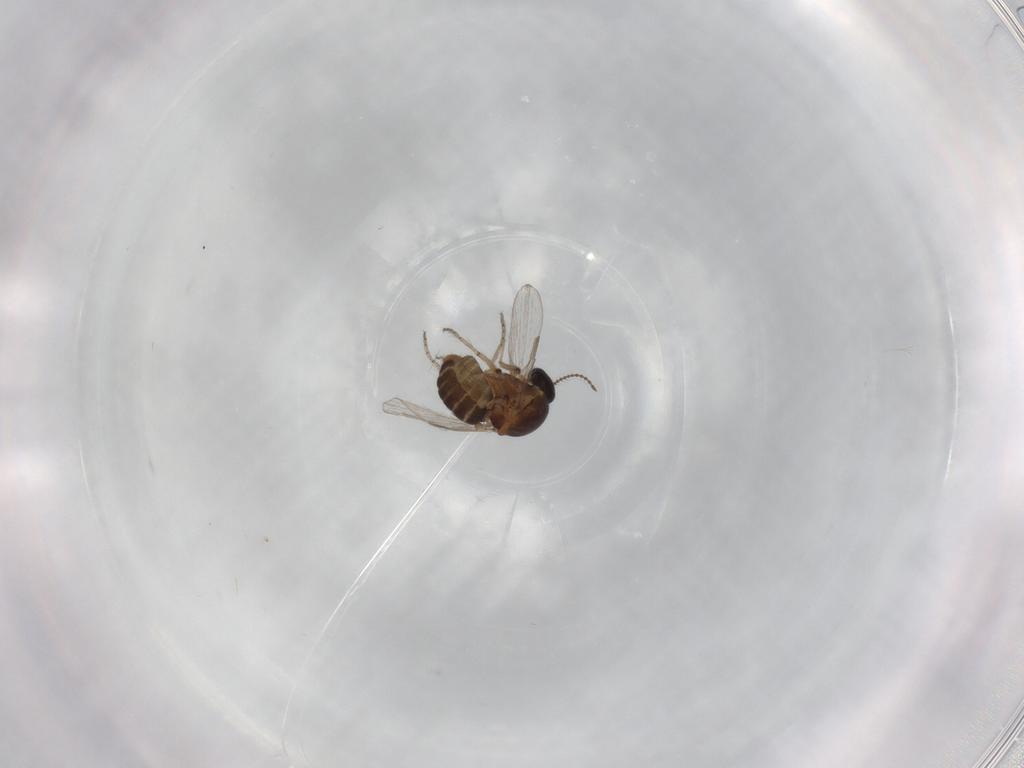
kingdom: Animalia
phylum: Arthropoda
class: Insecta
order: Diptera
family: Ceratopogonidae
